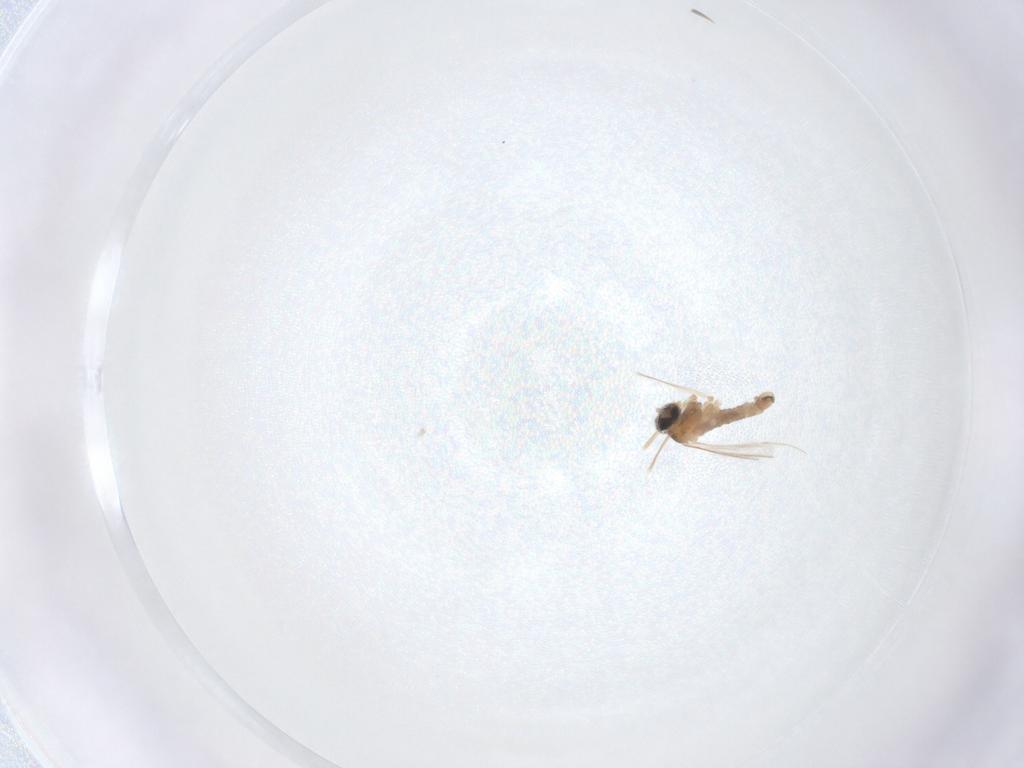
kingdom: Animalia
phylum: Arthropoda
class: Insecta
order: Diptera
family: Cecidomyiidae
